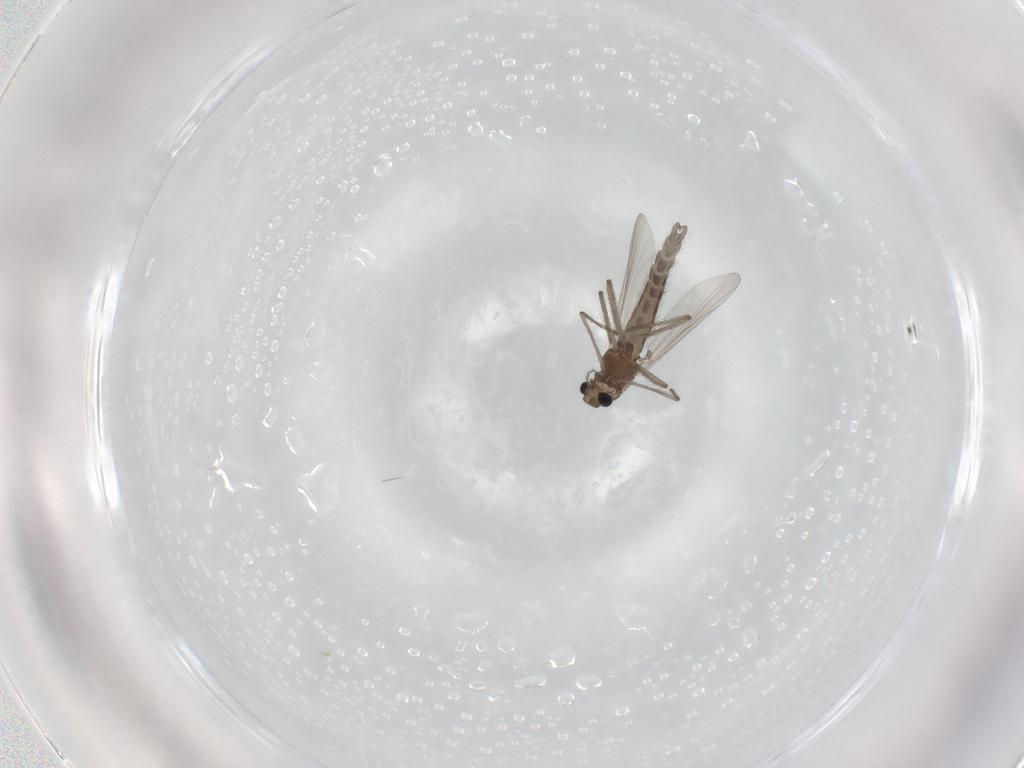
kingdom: Animalia
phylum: Arthropoda
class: Insecta
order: Diptera
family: Chironomidae
